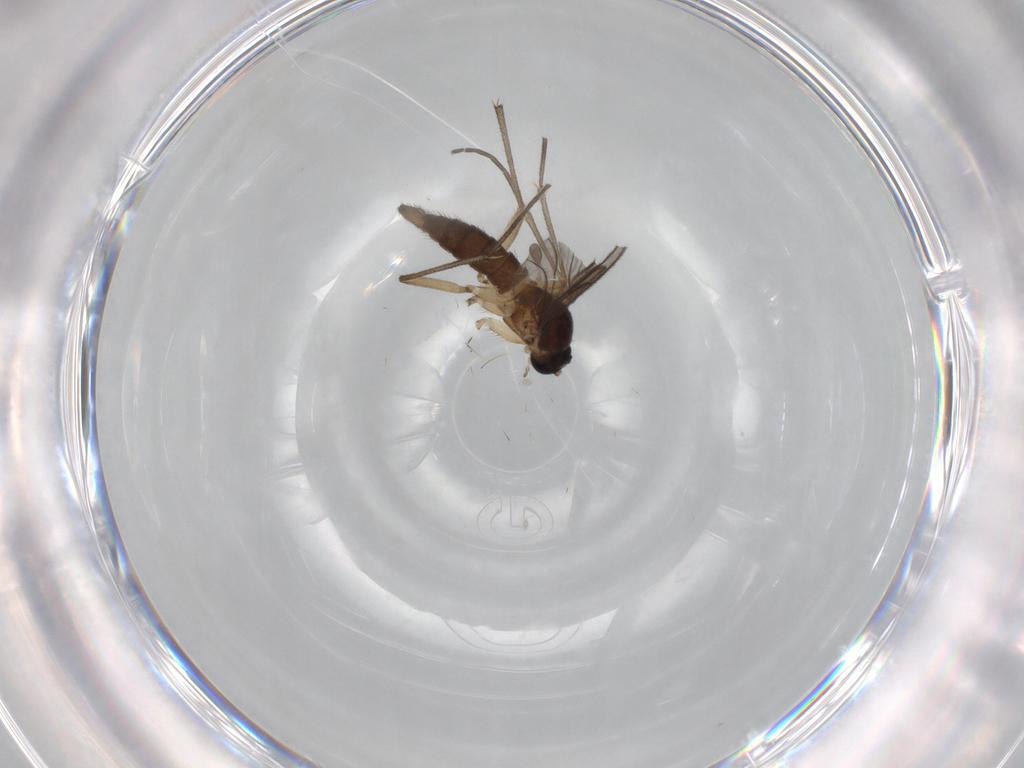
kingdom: Animalia
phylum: Arthropoda
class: Insecta
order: Diptera
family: Sciaridae
